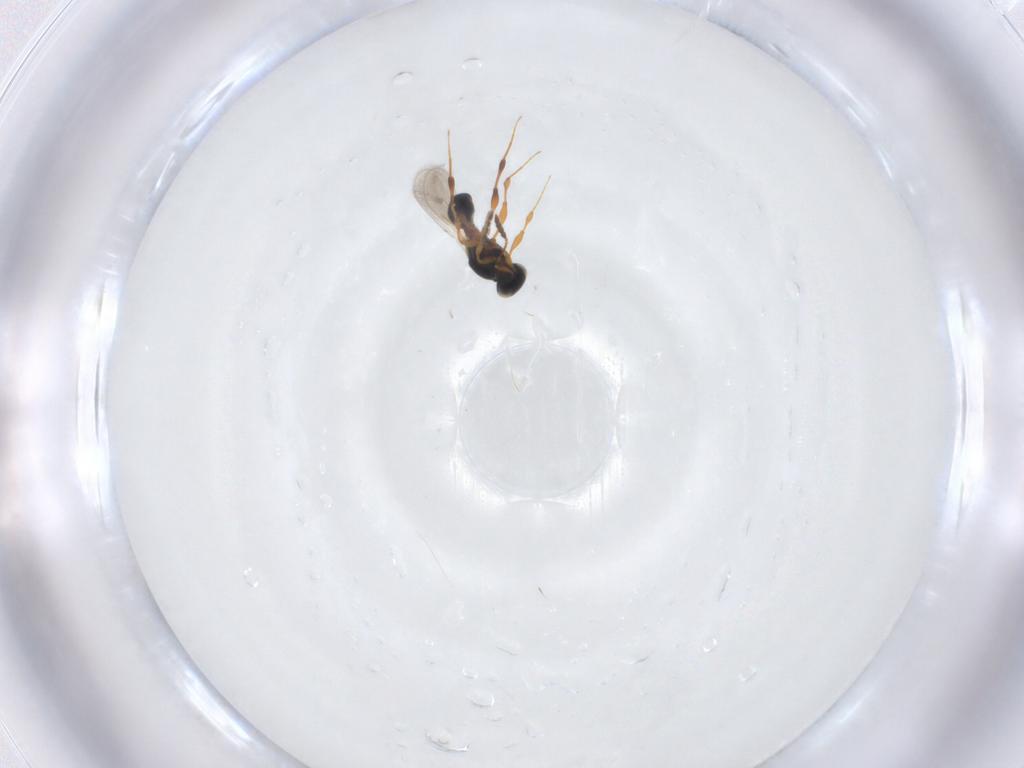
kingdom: Animalia
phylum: Arthropoda
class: Insecta
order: Hymenoptera
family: Platygastridae
